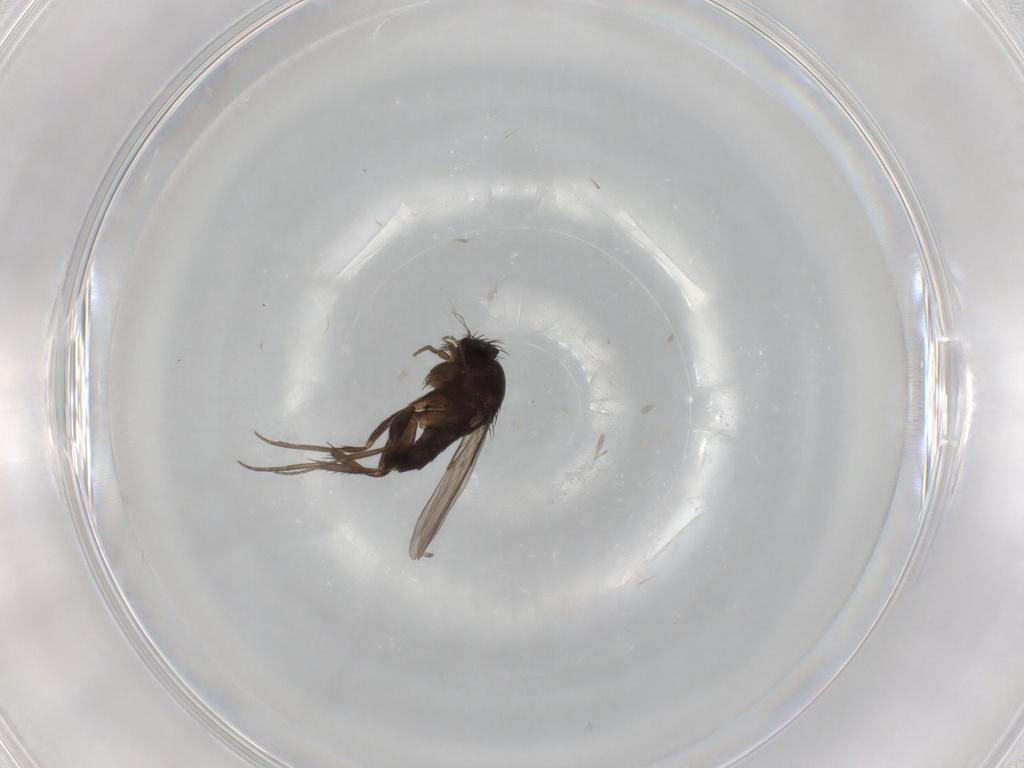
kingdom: Animalia
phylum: Arthropoda
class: Insecta
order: Diptera
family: Phoridae
